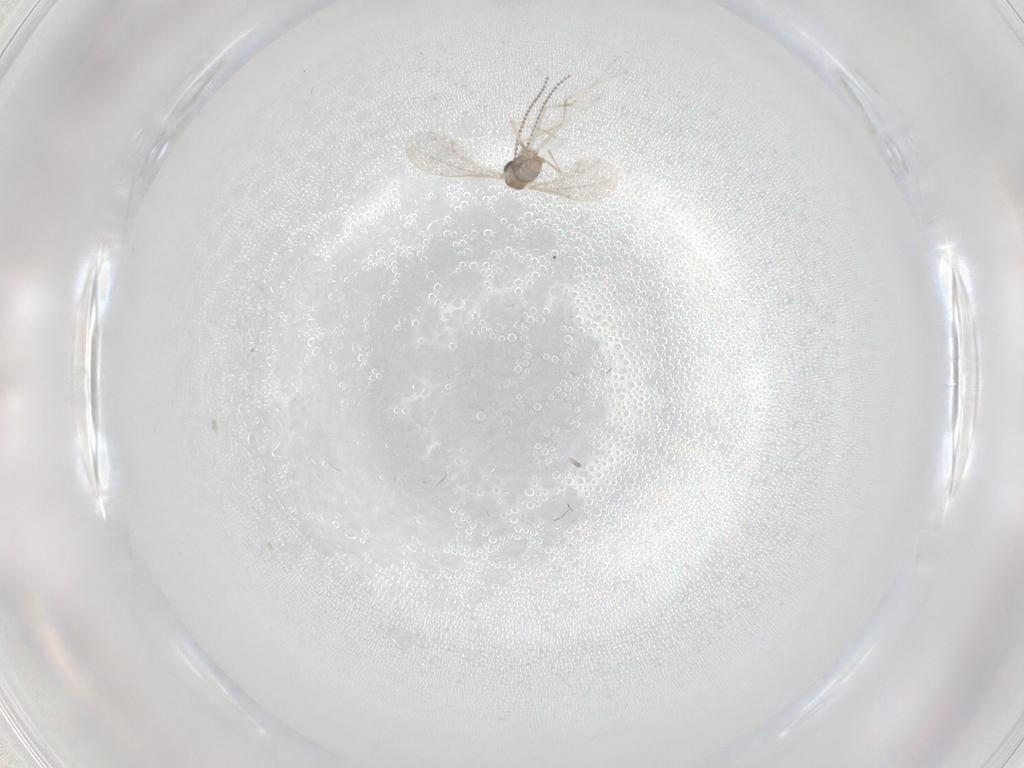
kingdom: Animalia
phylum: Arthropoda
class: Insecta
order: Diptera
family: Cecidomyiidae
